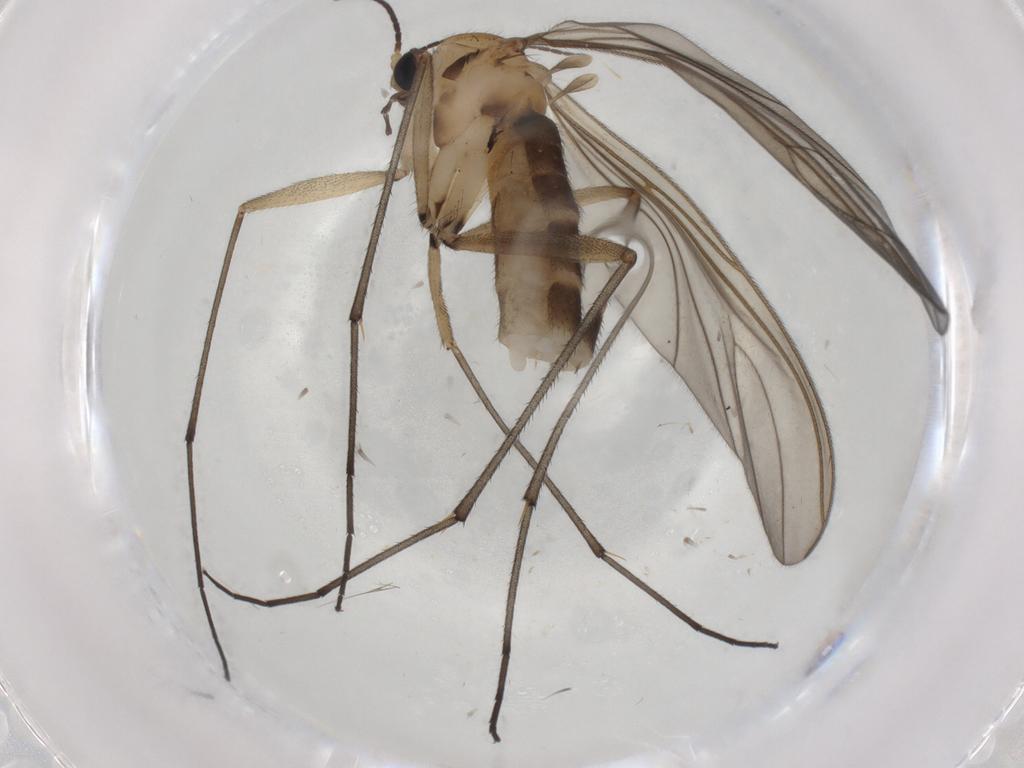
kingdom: Animalia
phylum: Arthropoda
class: Insecta
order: Diptera
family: Sciaridae
